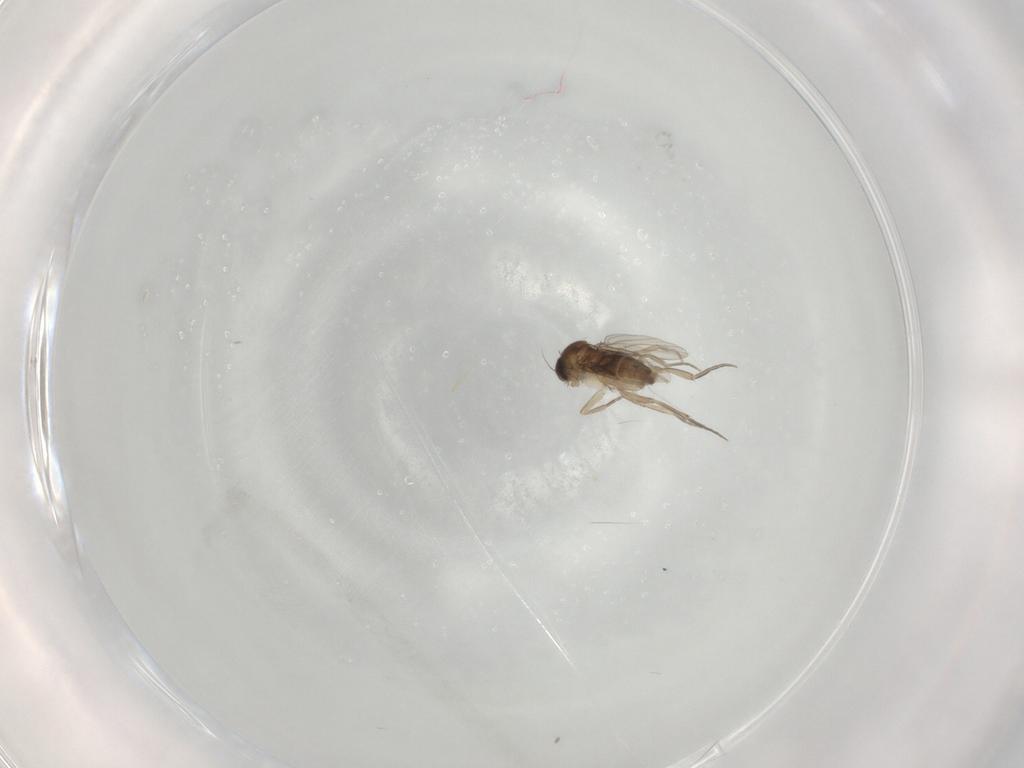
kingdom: Animalia
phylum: Arthropoda
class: Insecta
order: Diptera
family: Phoridae
